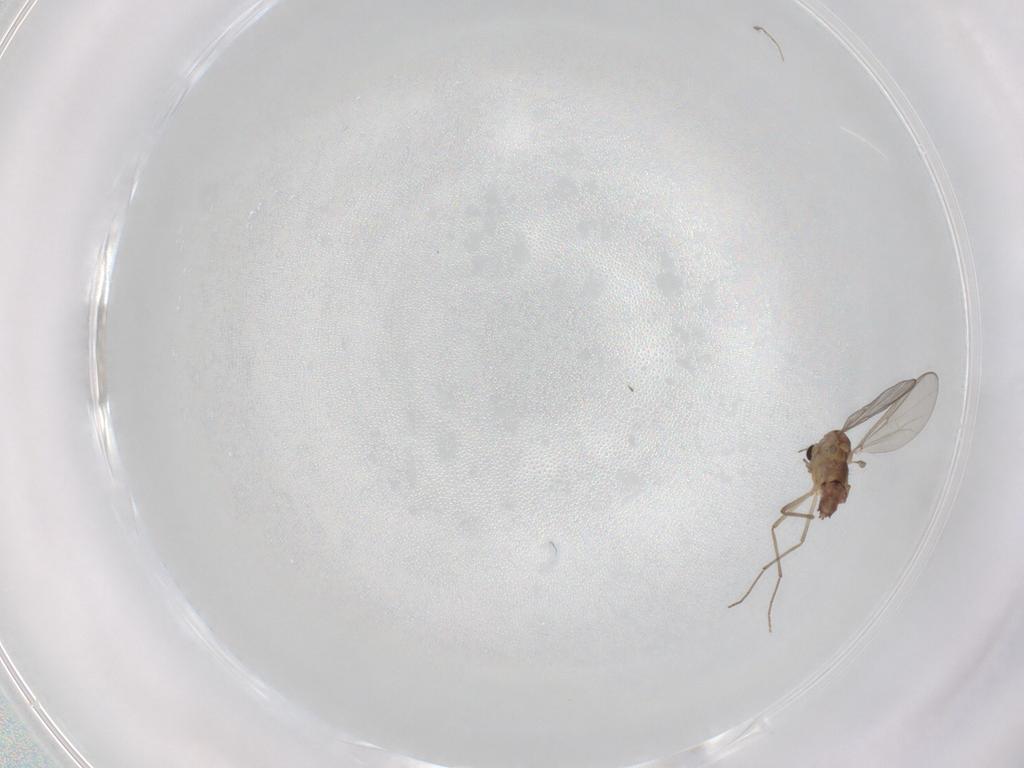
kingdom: Animalia
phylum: Arthropoda
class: Insecta
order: Diptera
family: Chironomidae
